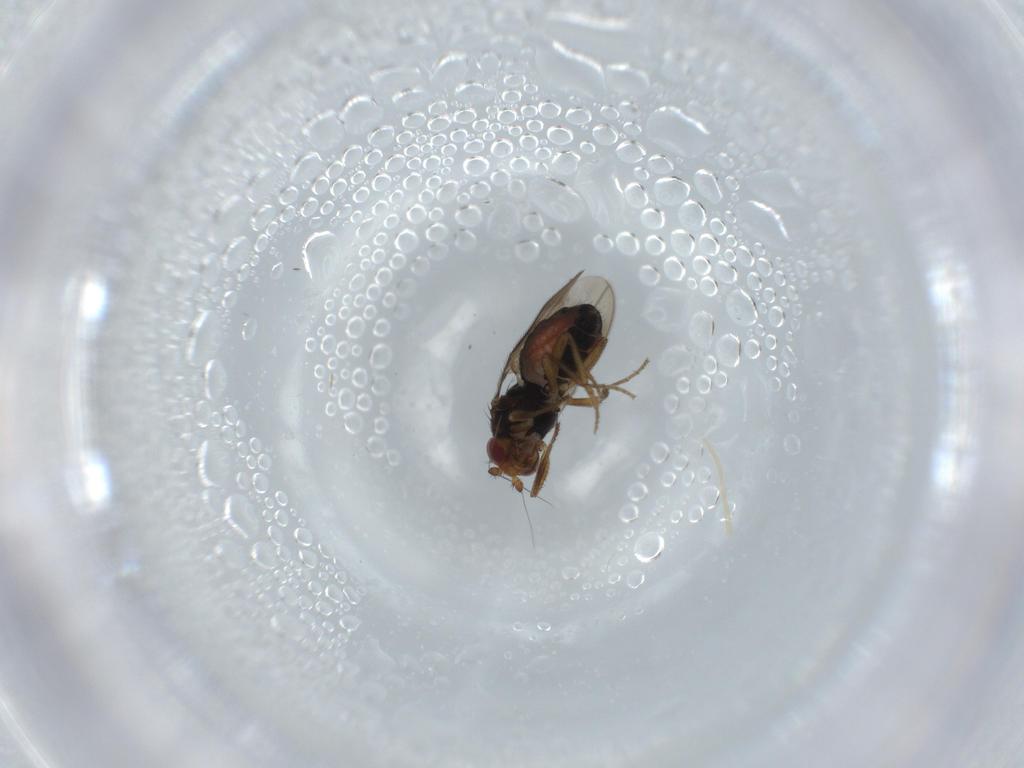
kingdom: Animalia
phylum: Arthropoda
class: Insecta
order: Diptera
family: Sphaeroceridae
